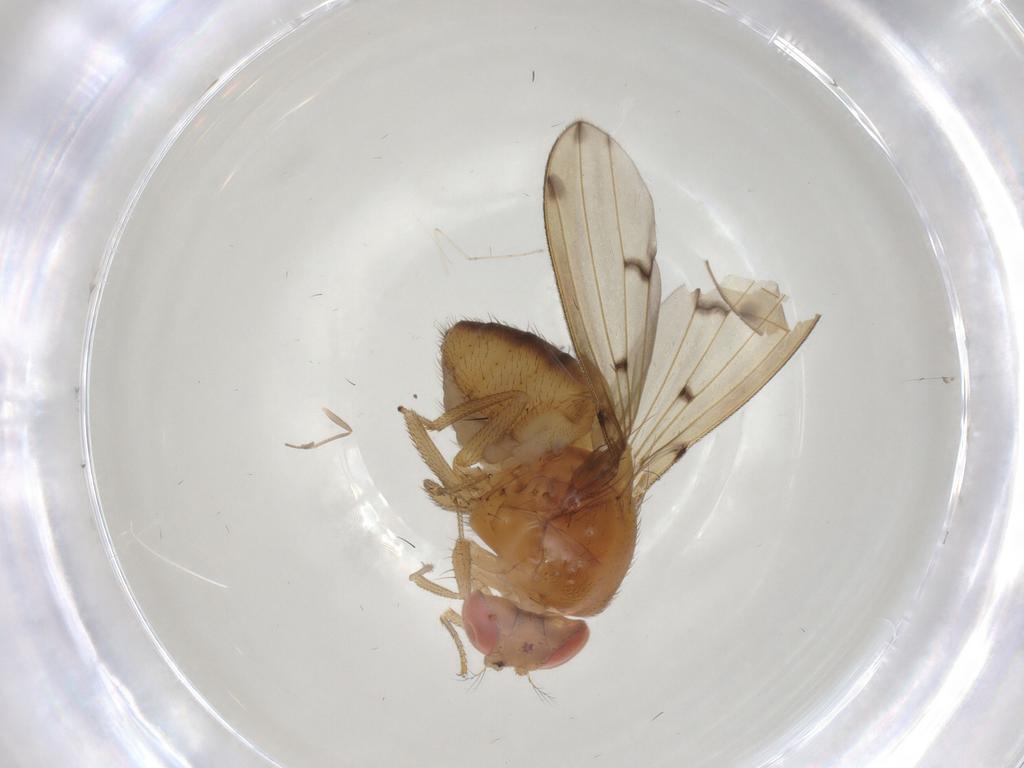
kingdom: Animalia
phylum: Arthropoda
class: Insecta
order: Diptera
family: Drosophilidae
